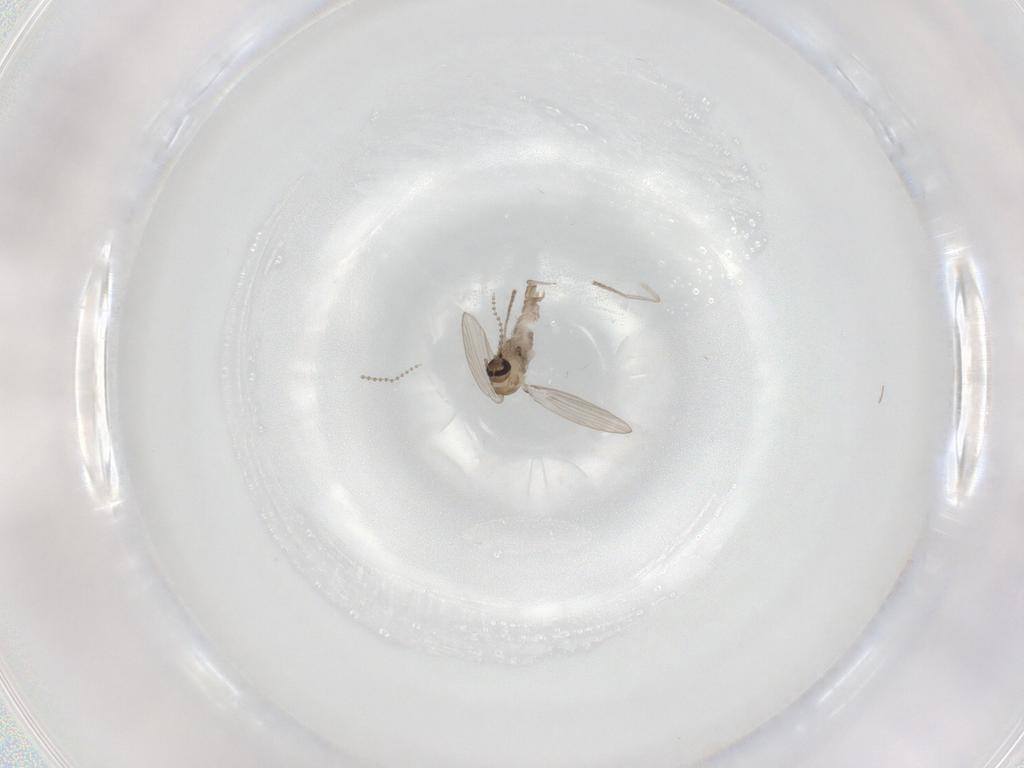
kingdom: Animalia
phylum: Arthropoda
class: Insecta
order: Diptera
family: Psychodidae
